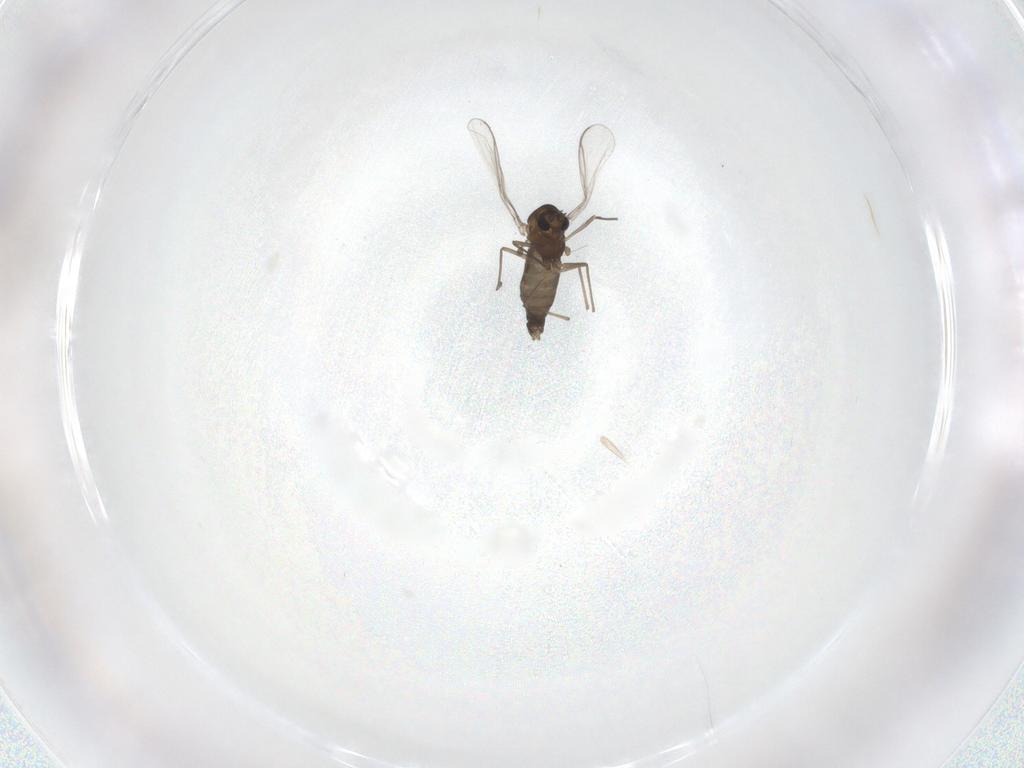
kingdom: Animalia
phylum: Arthropoda
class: Insecta
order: Diptera
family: Chironomidae
